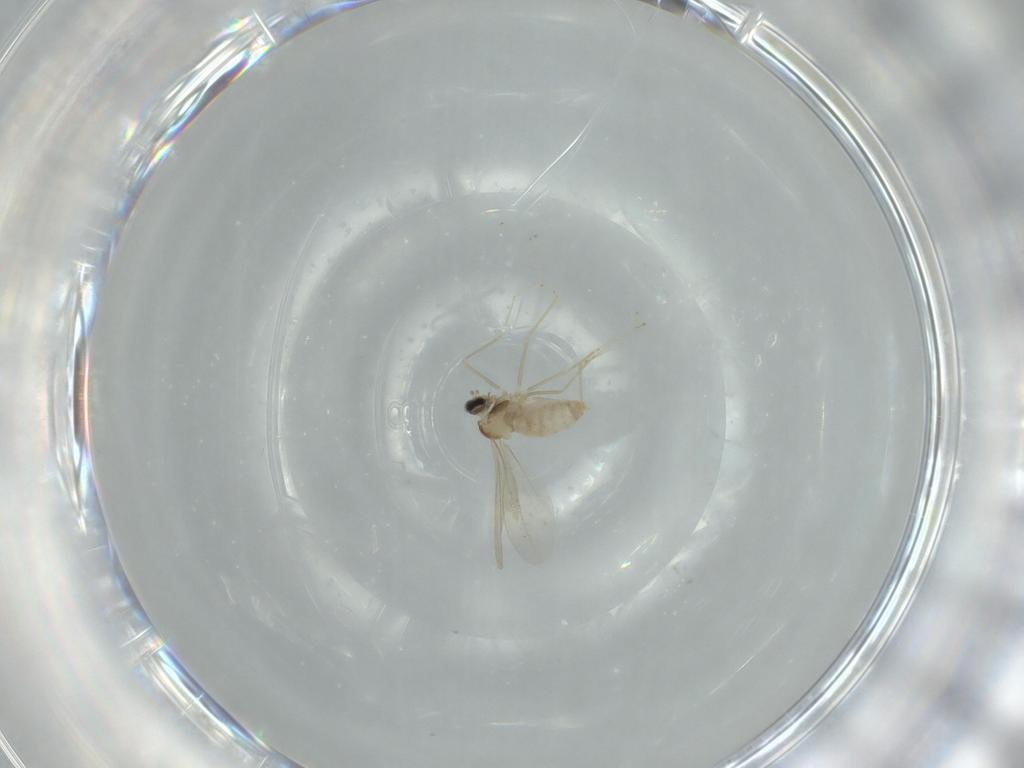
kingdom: Animalia
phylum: Arthropoda
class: Insecta
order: Diptera
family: Cecidomyiidae
